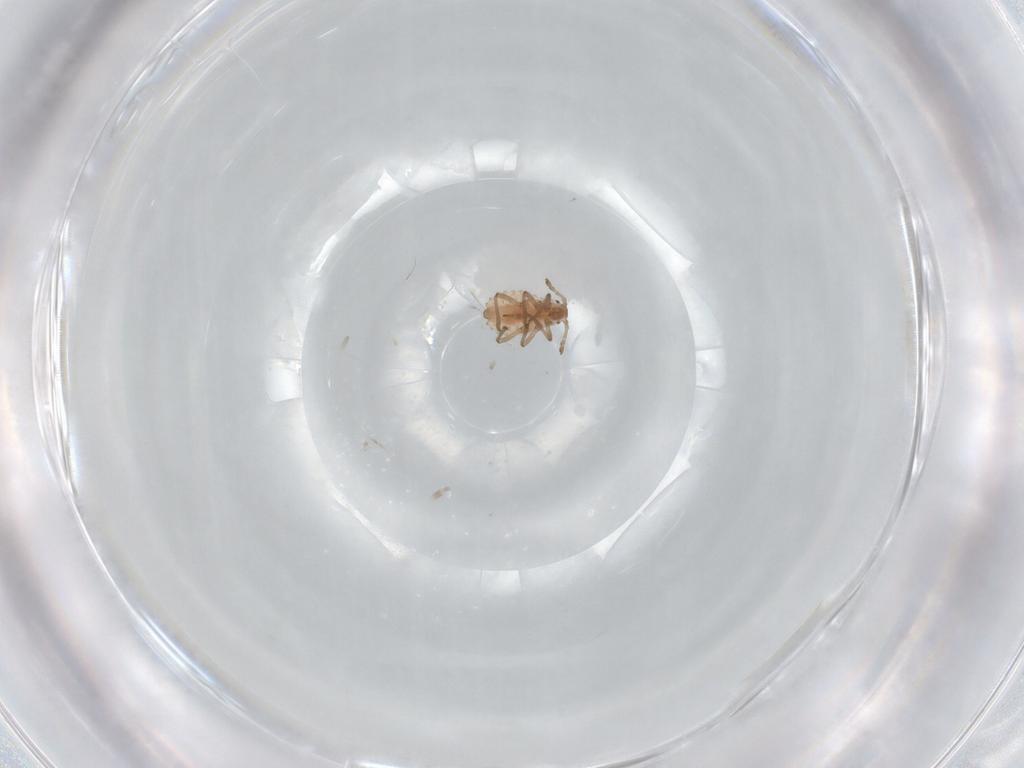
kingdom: Animalia
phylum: Arthropoda
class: Insecta
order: Hemiptera
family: Aphididae
